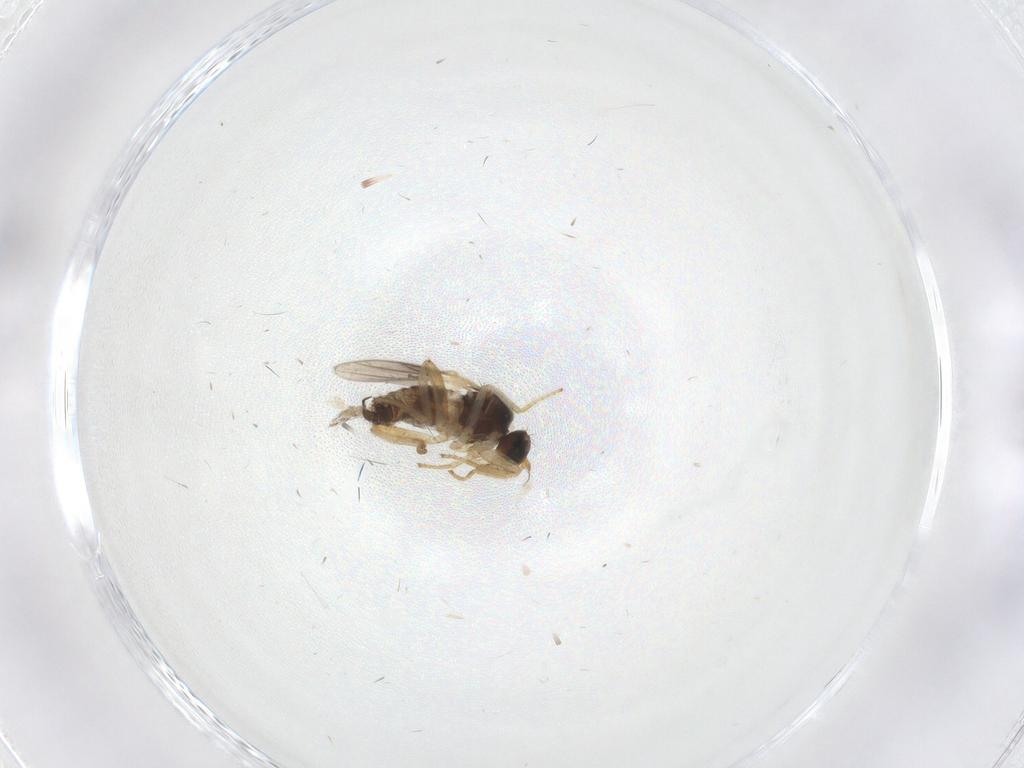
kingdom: Animalia
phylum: Arthropoda
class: Insecta
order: Diptera
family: Hybotidae
